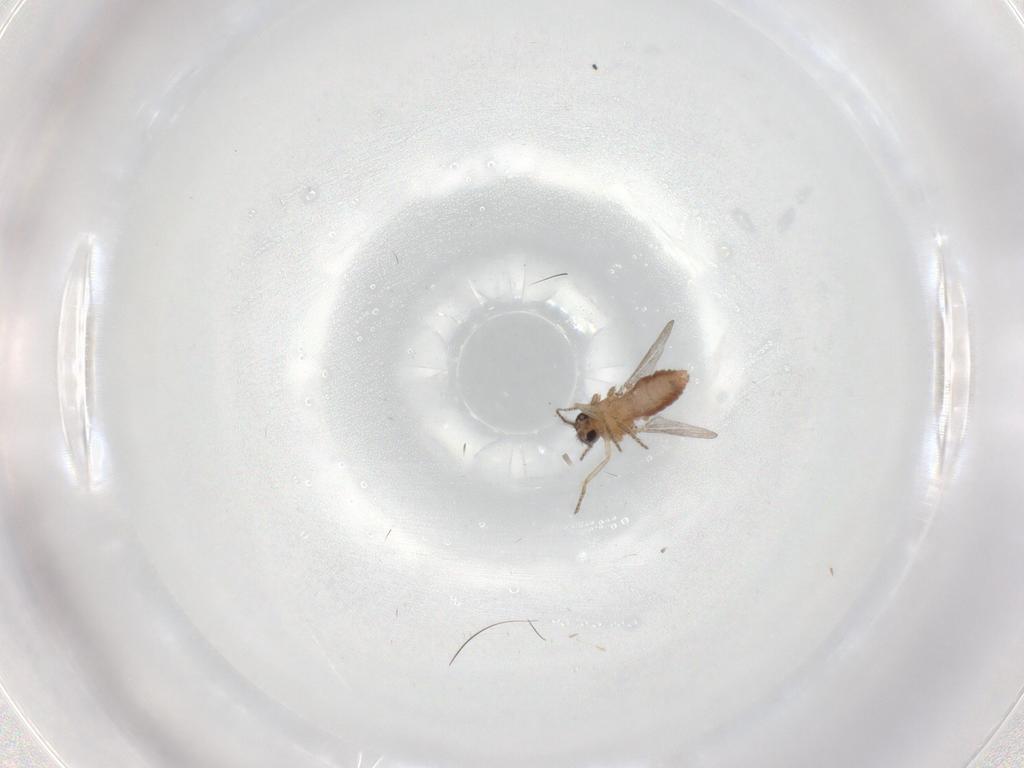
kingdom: Animalia
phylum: Arthropoda
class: Insecta
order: Diptera
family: Ceratopogonidae
